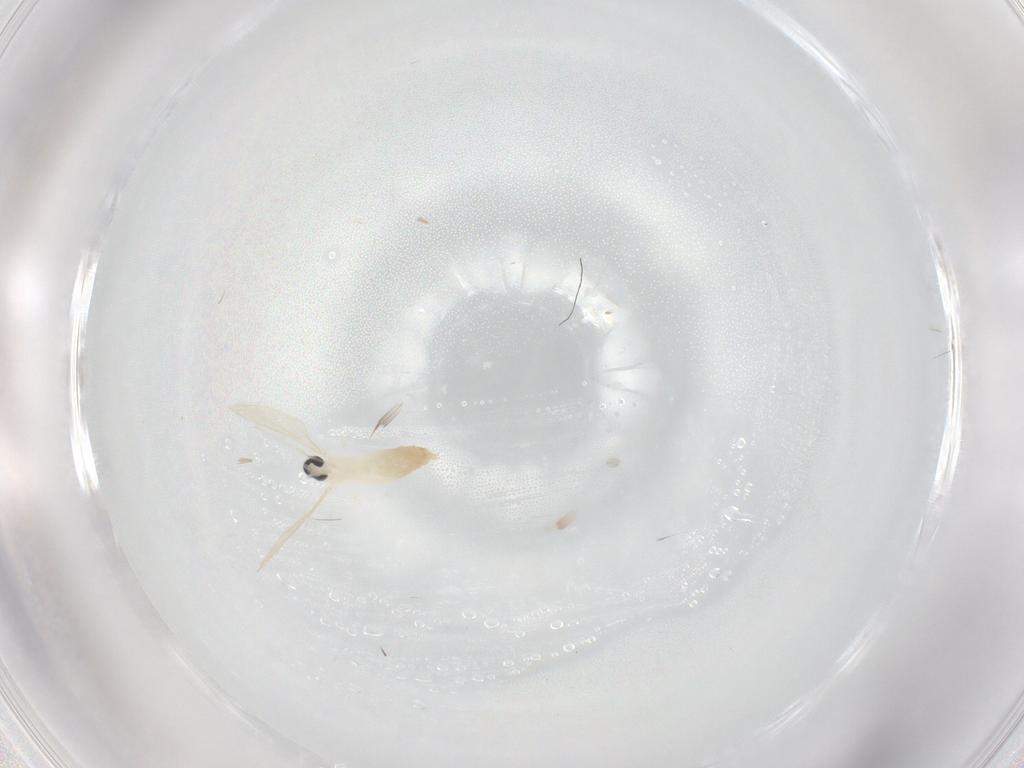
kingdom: Animalia
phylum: Arthropoda
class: Insecta
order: Diptera
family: Cecidomyiidae
